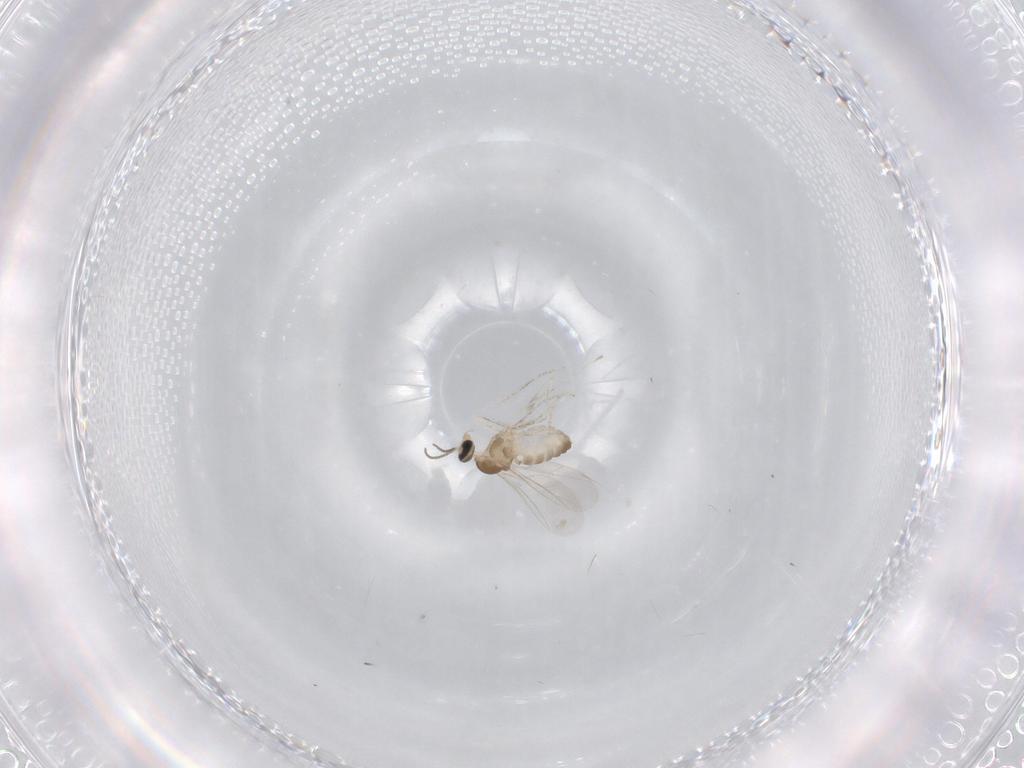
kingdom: Animalia
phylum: Arthropoda
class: Insecta
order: Diptera
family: Cecidomyiidae
